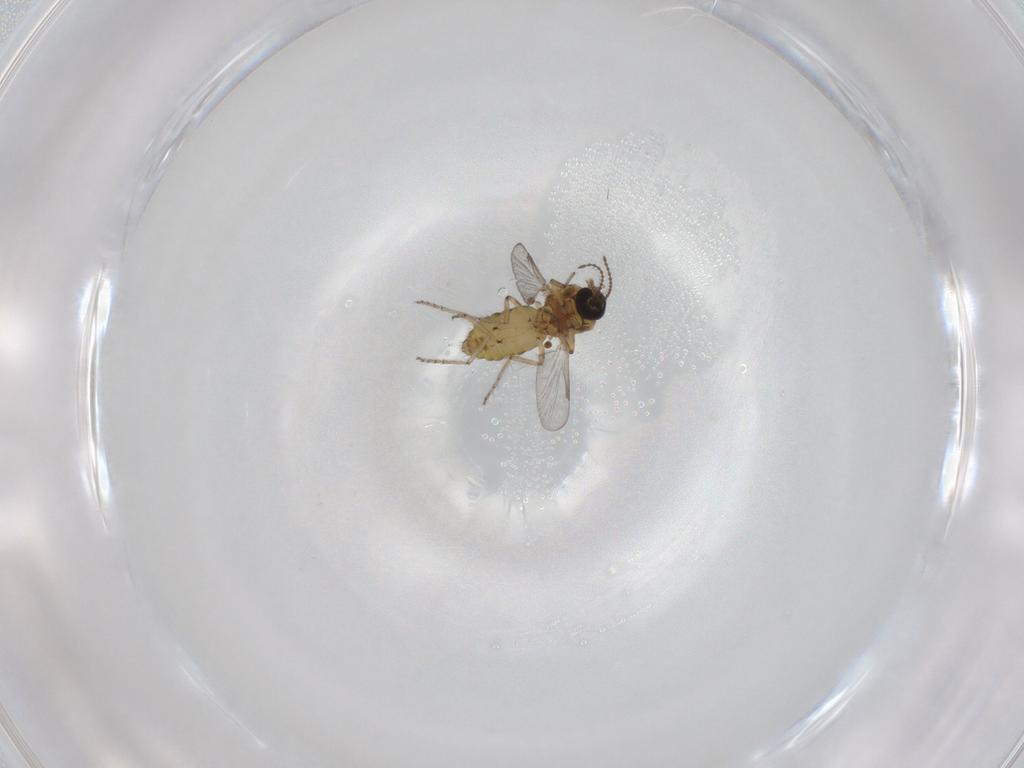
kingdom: Animalia
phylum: Arthropoda
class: Insecta
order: Diptera
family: Ceratopogonidae
